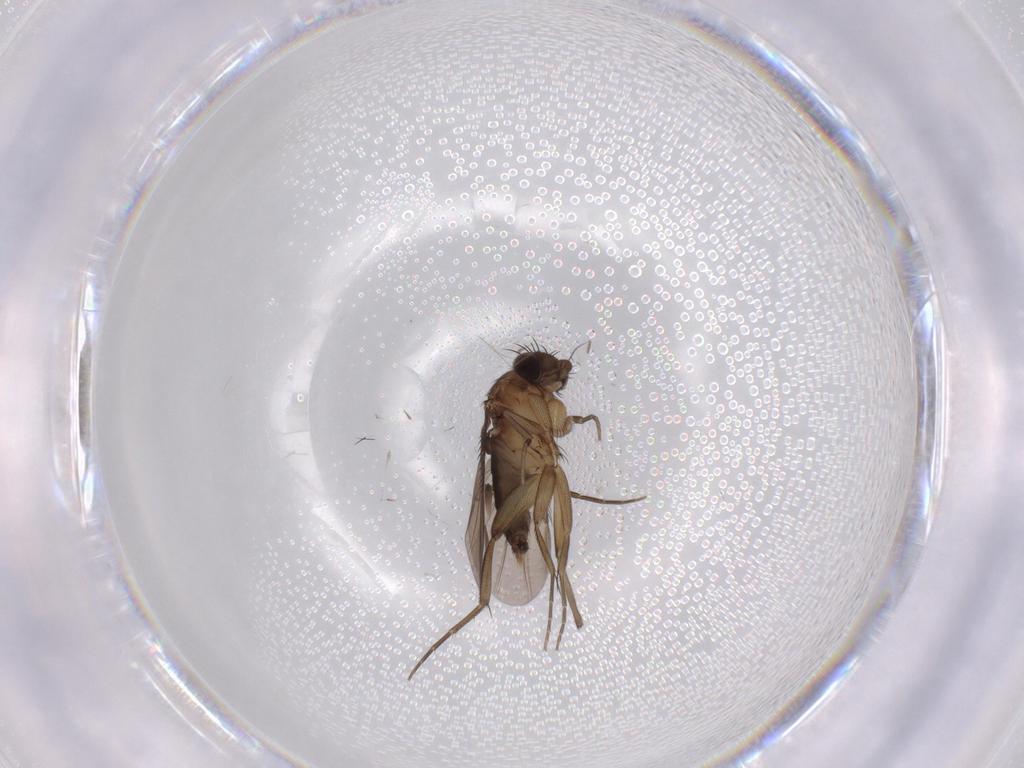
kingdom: Animalia
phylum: Arthropoda
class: Insecta
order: Diptera
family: Phoridae
